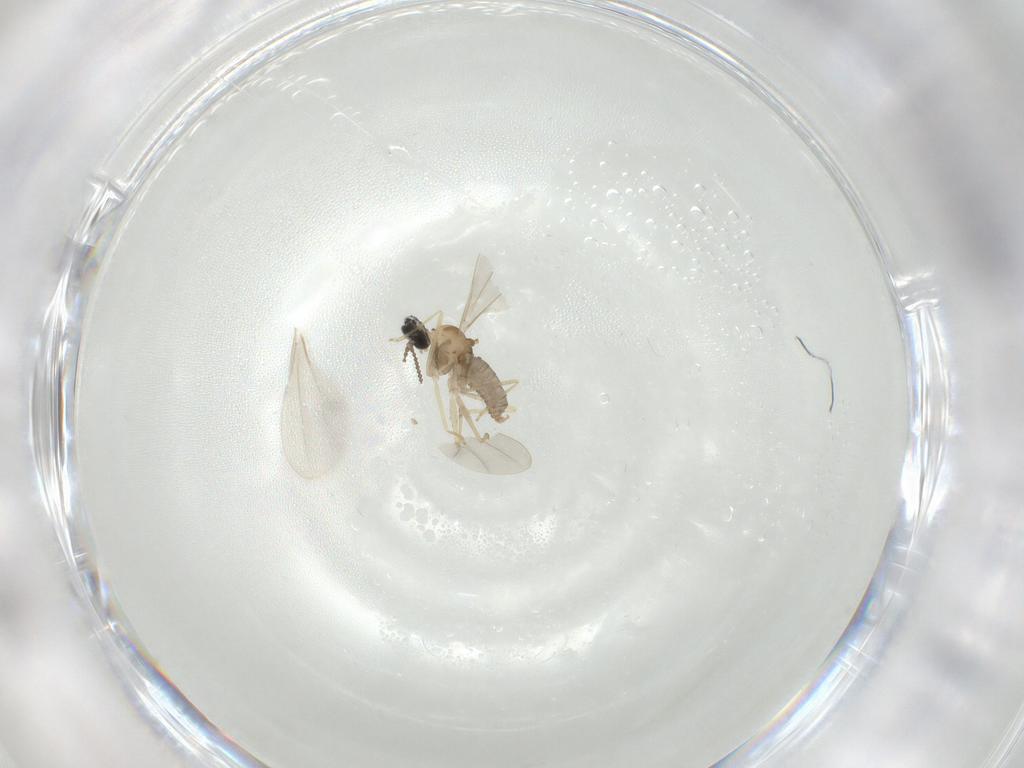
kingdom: Animalia
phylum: Arthropoda
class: Insecta
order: Diptera
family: Cecidomyiidae
